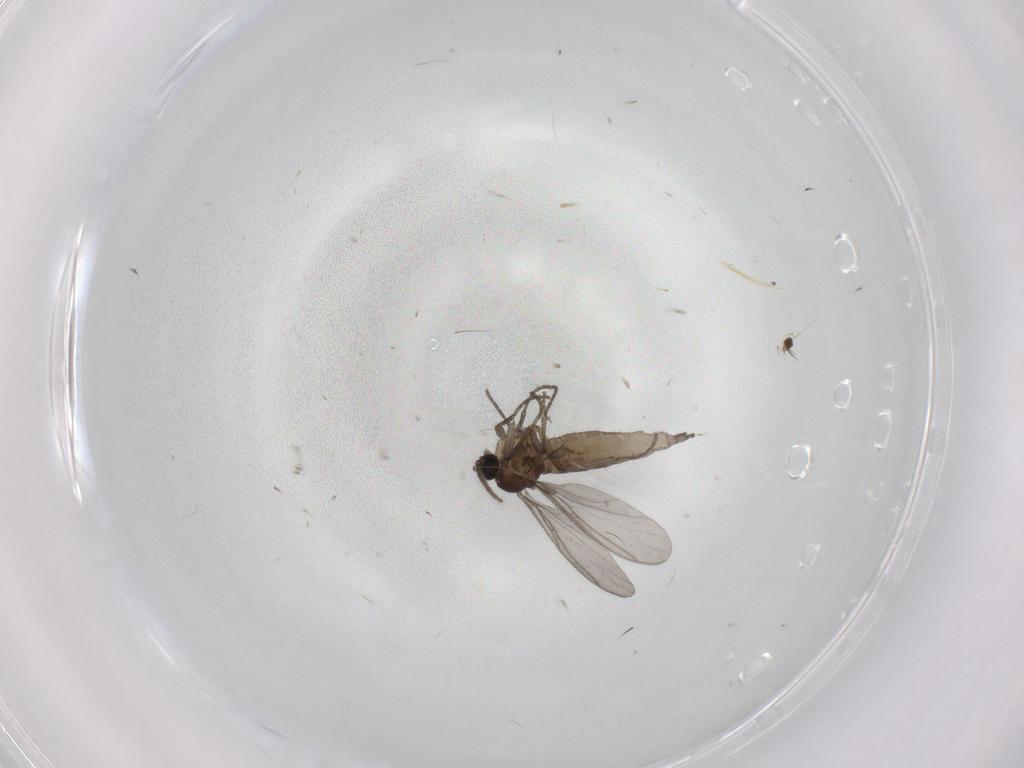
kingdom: Animalia
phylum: Arthropoda
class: Insecta
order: Diptera
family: Sciaridae
